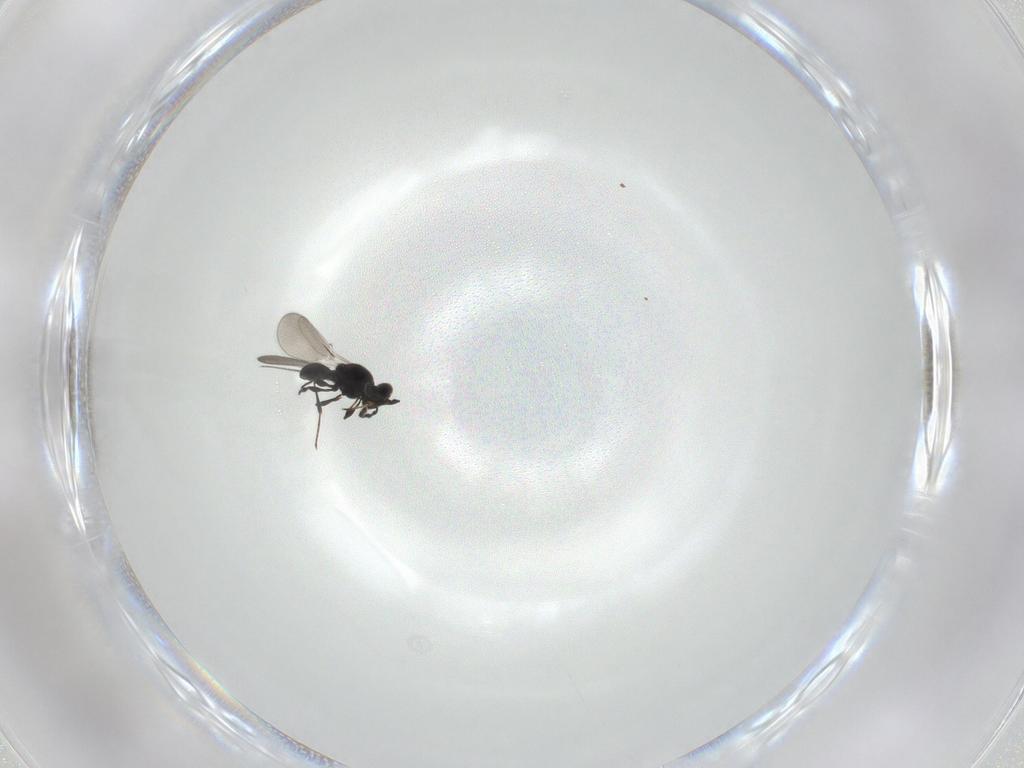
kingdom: Animalia
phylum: Arthropoda
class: Insecta
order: Hymenoptera
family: Platygastridae
